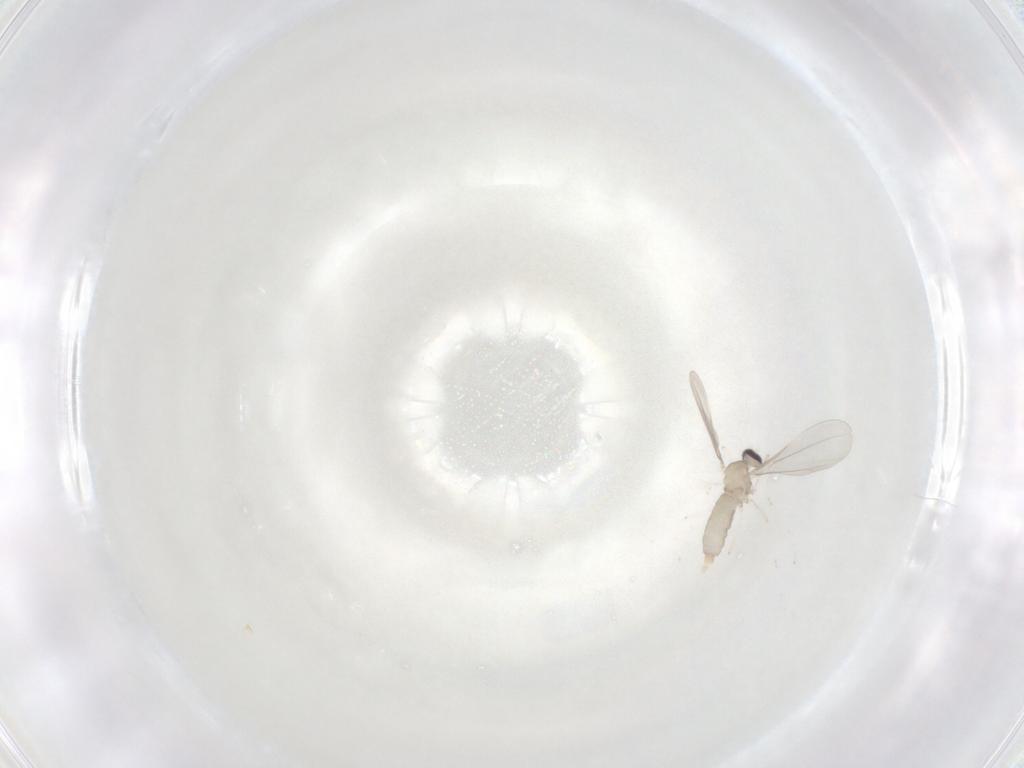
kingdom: Animalia
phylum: Arthropoda
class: Insecta
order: Diptera
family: Cecidomyiidae
